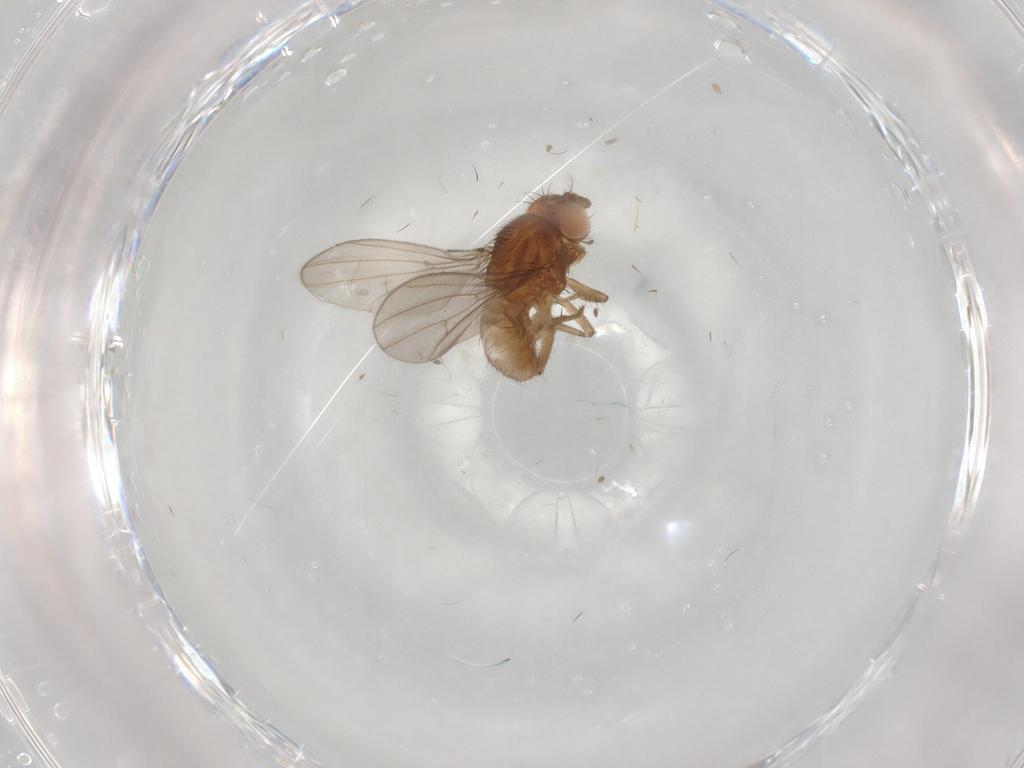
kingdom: Animalia
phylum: Arthropoda
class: Insecta
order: Diptera
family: Drosophilidae
